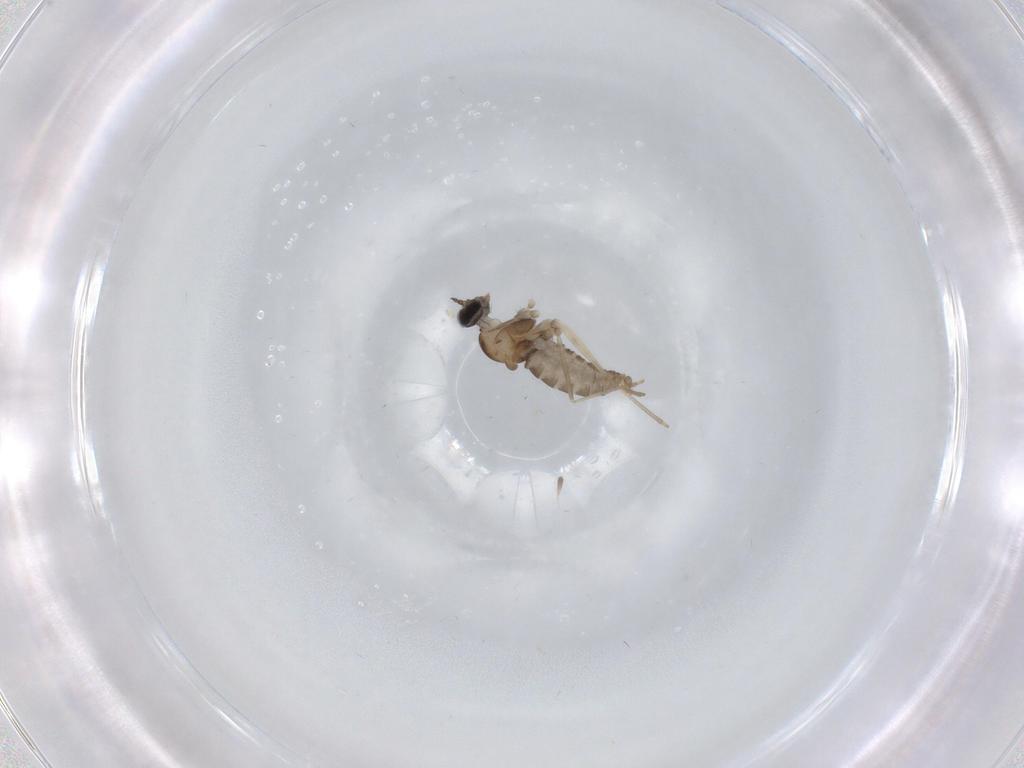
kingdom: Animalia
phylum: Arthropoda
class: Insecta
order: Diptera
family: Cecidomyiidae
